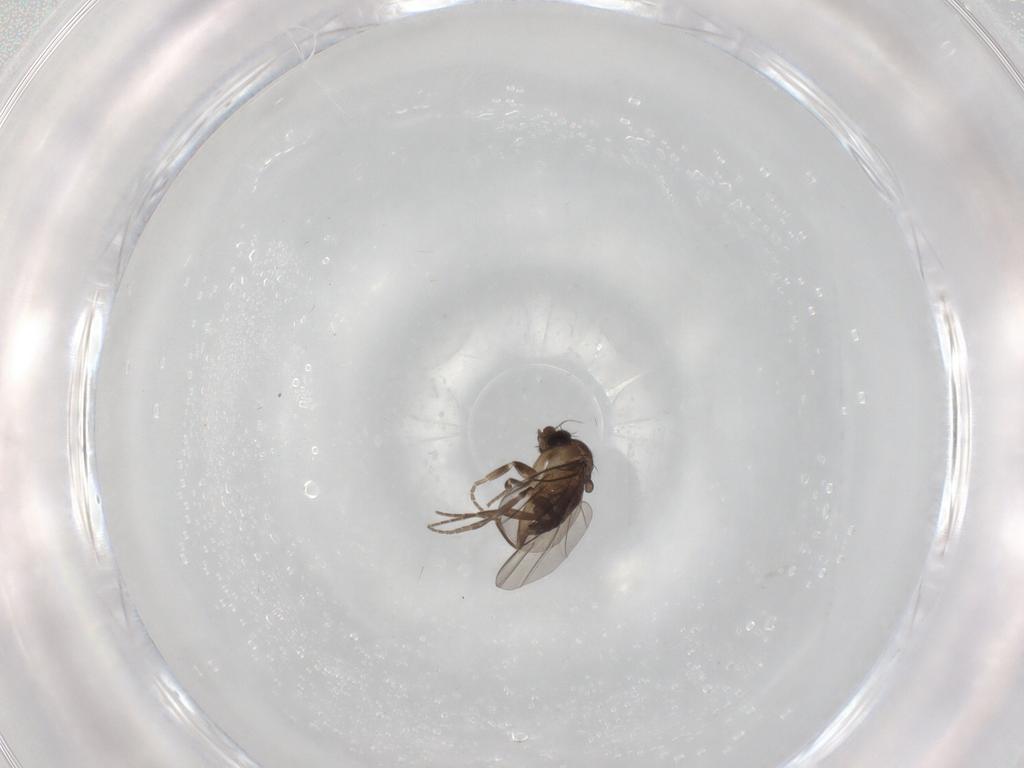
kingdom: Animalia
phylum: Arthropoda
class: Insecta
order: Diptera
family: Phoridae
